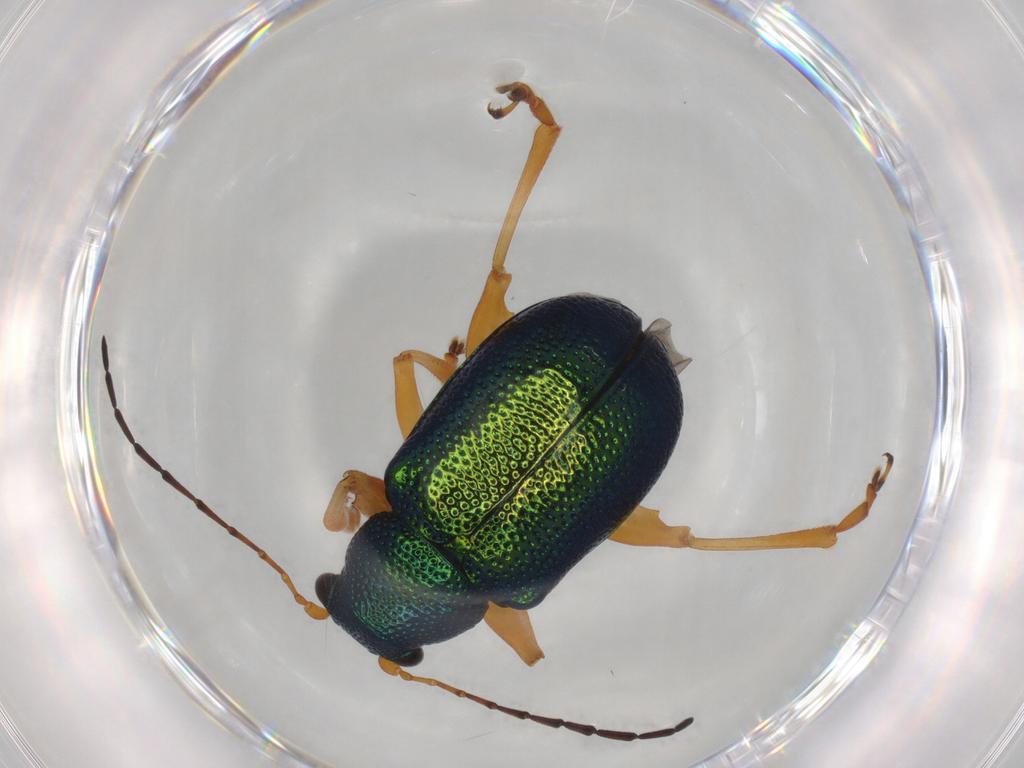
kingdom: Animalia
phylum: Arthropoda
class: Insecta
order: Coleoptera
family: Chrysomelidae
